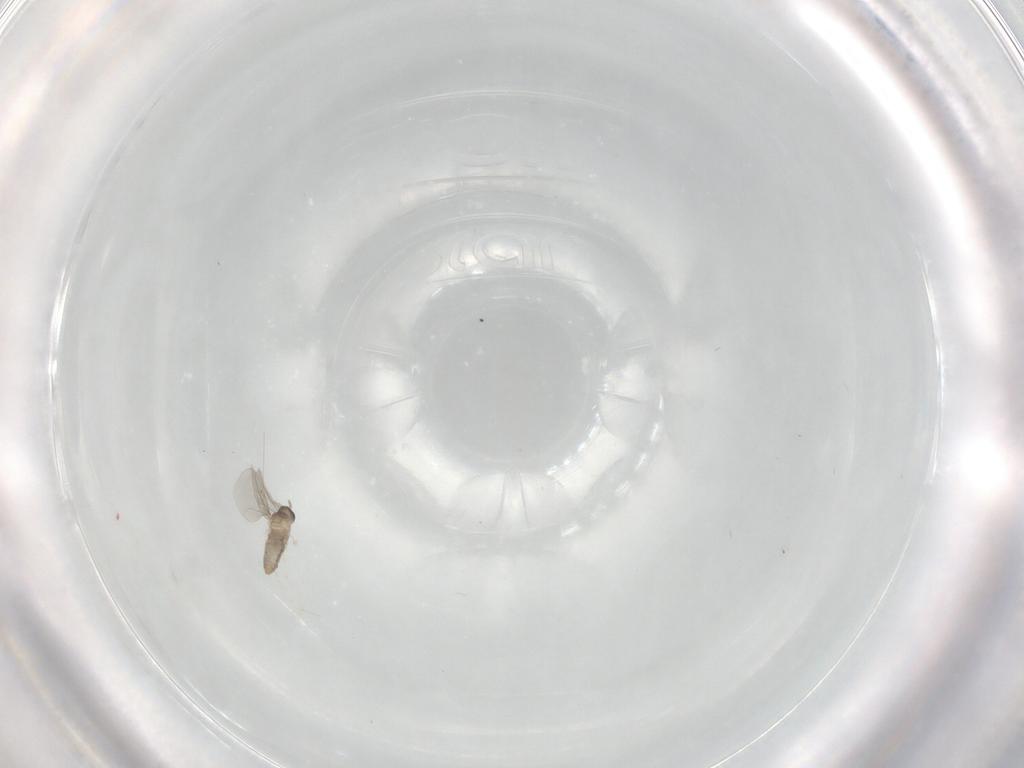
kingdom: Animalia
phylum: Arthropoda
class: Insecta
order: Diptera
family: Cecidomyiidae
